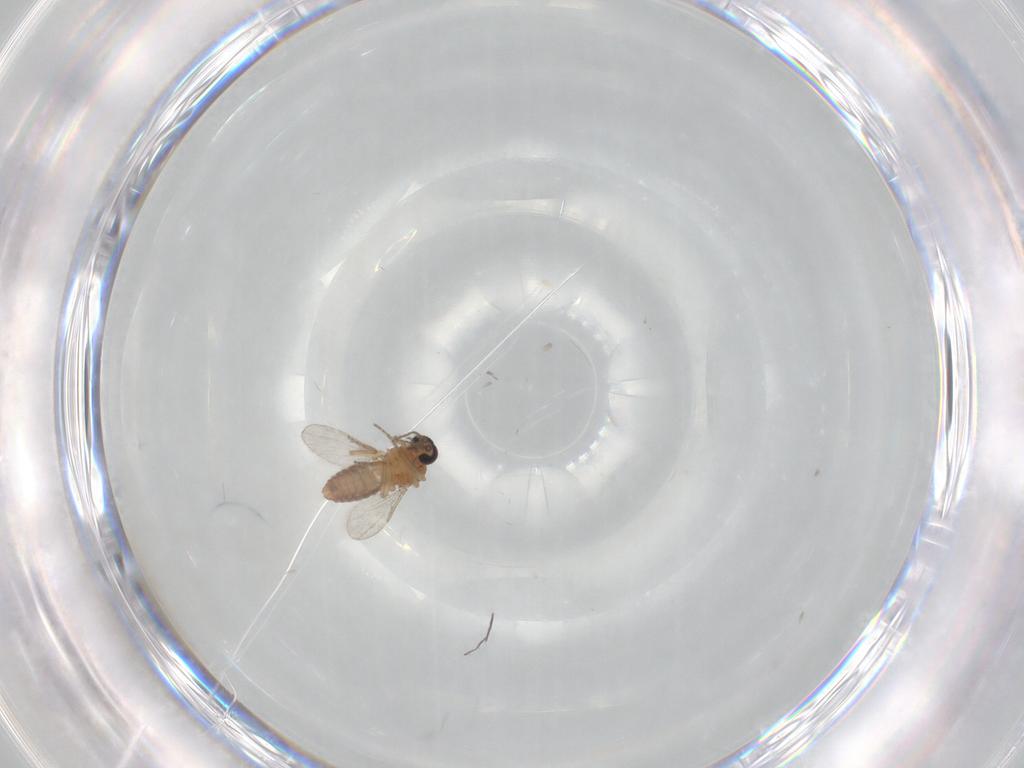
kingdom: Animalia
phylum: Arthropoda
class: Insecta
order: Diptera
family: Ceratopogonidae
